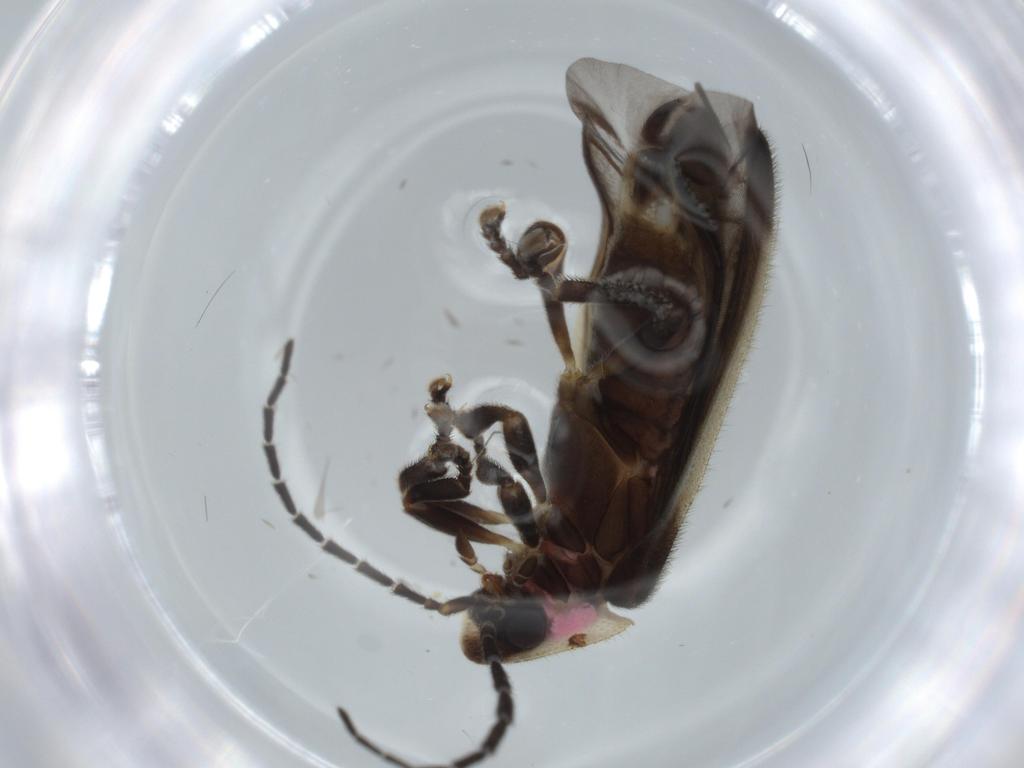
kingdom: Animalia
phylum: Arthropoda
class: Insecta
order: Coleoptera
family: Lampyridae
